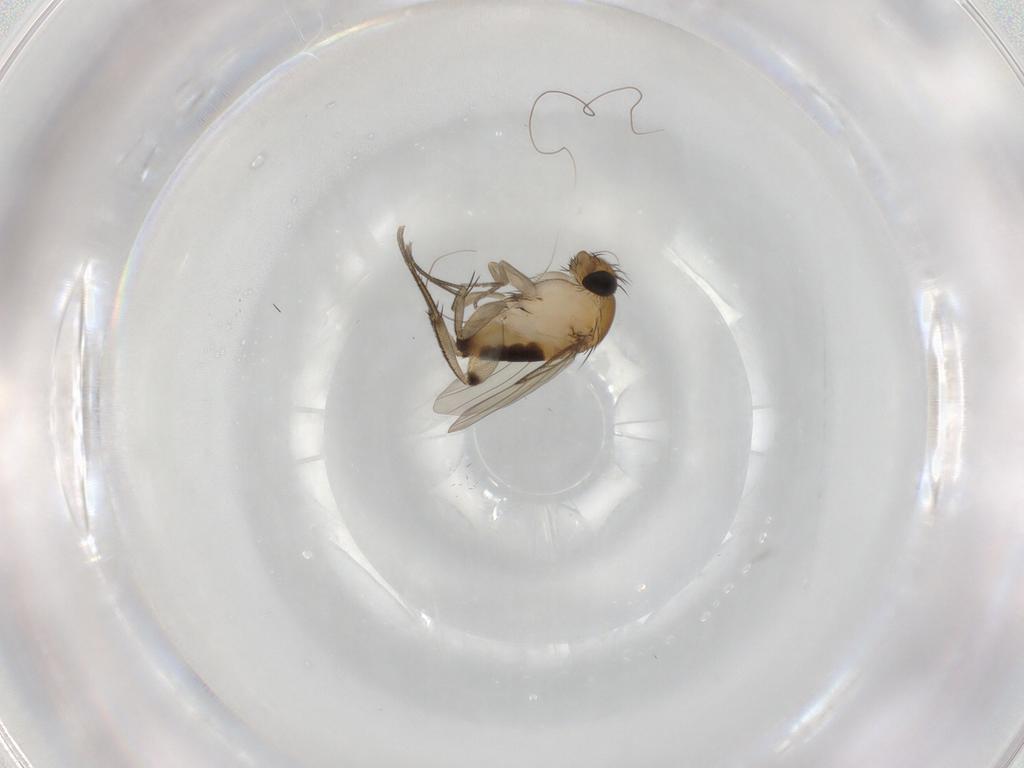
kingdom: Animalia
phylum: Arthropoda
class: Insecta
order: Diptera
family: Phoridae
